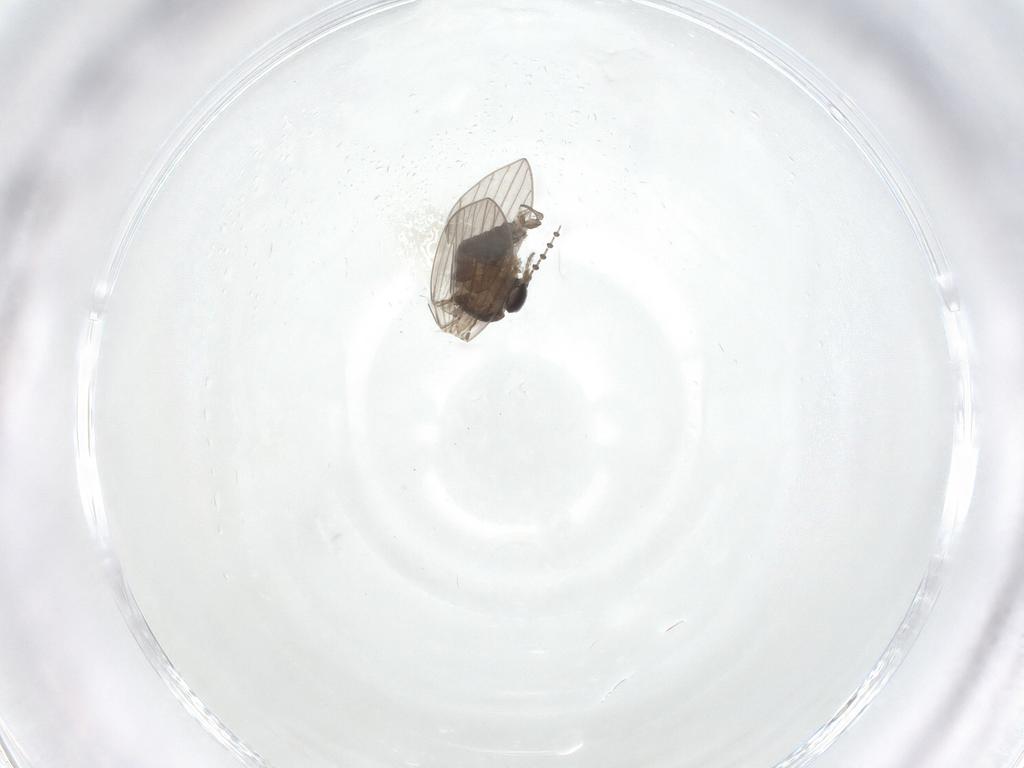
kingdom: Animalia
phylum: Arthropoda
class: Insecta
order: Diptera
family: Psychodidae
